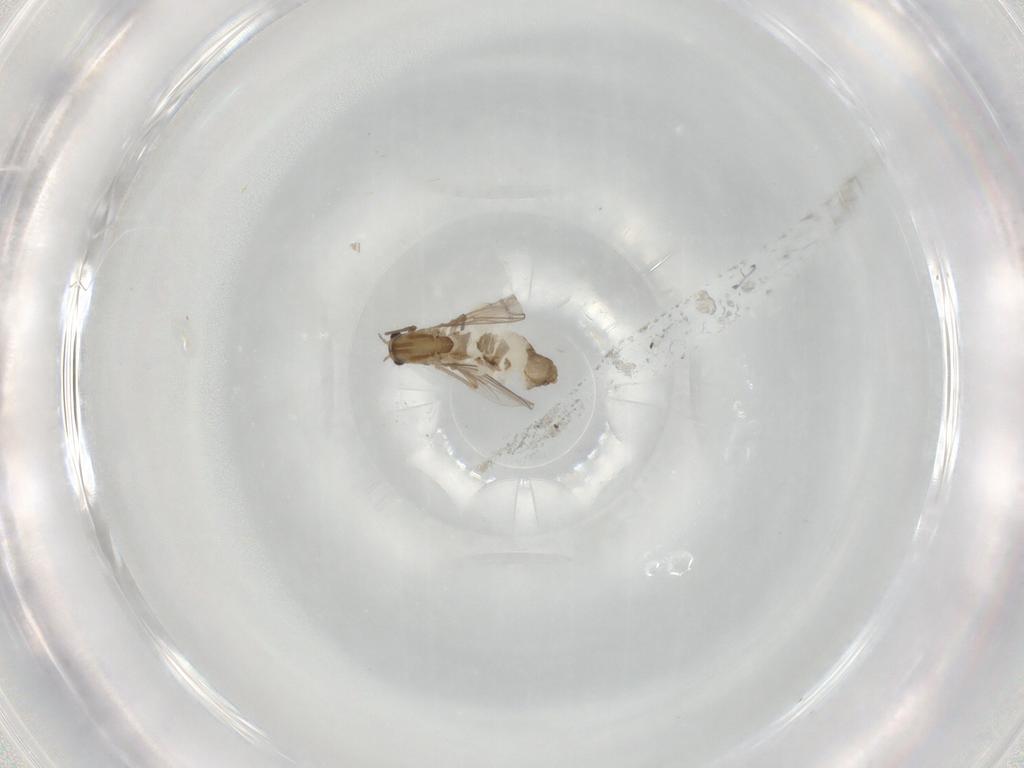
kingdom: Animalia
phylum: Arthropoda
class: Insecta
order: Diptera
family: Chironomidae
